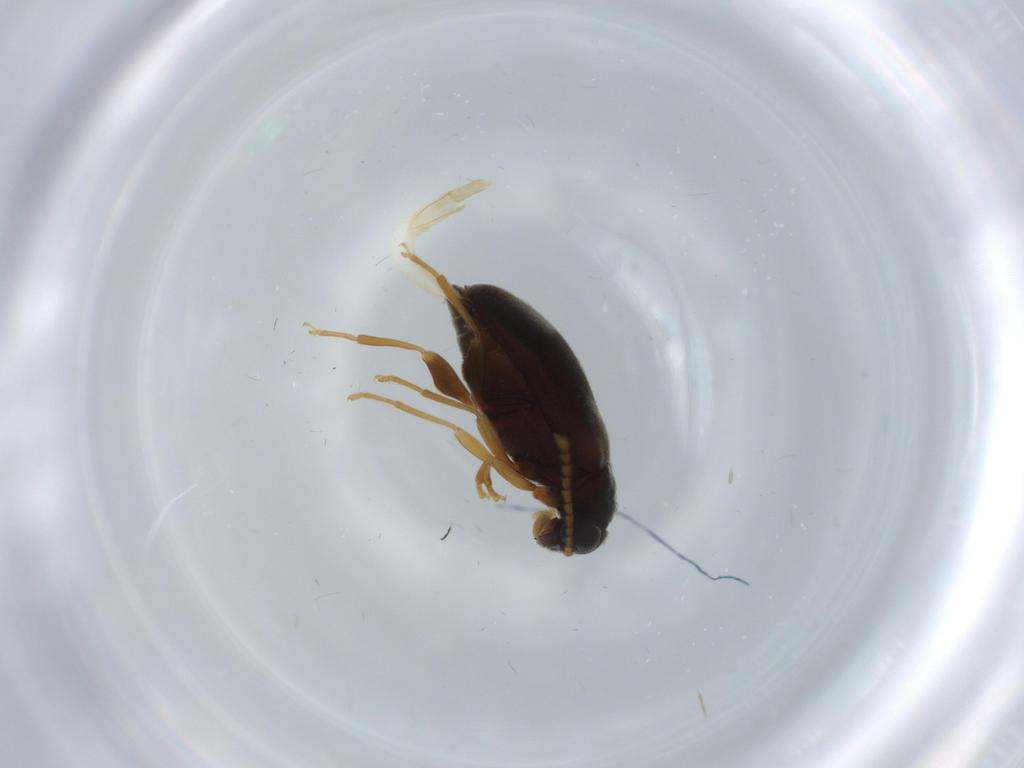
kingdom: Animalia
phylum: Arthropoda
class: Insecta
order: Coleoptera
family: Aderidae
